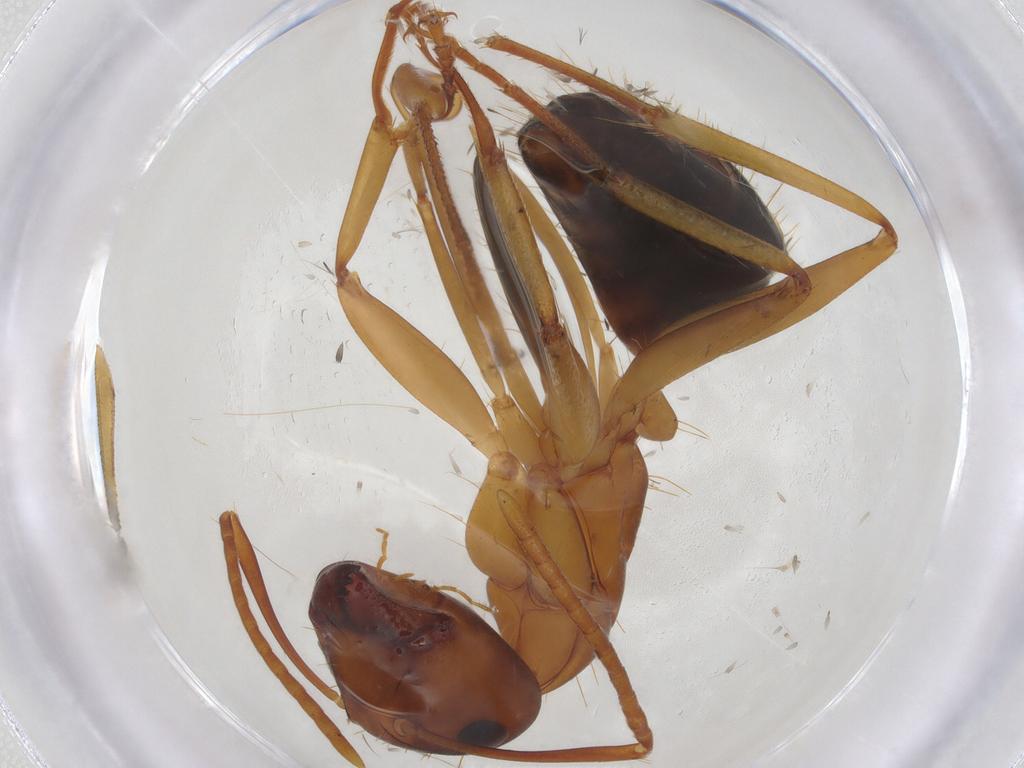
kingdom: Animalia
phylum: Arthropoda
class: Insecta
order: Hymenoptera
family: Formicidae
